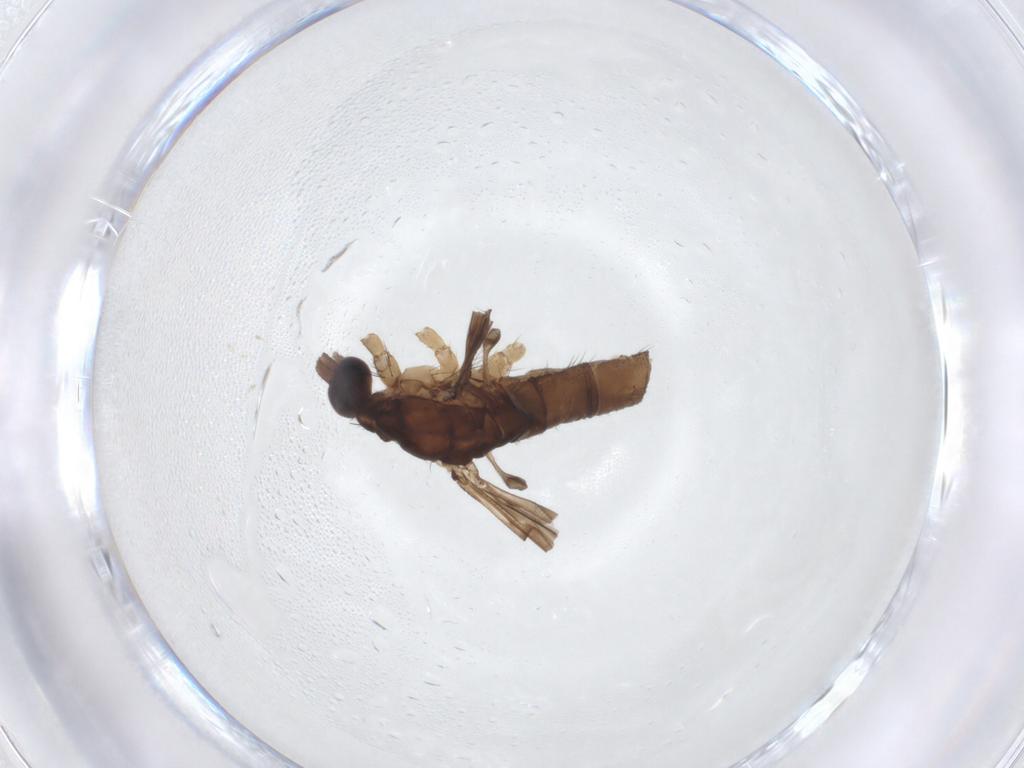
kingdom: Animalia
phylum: Arthropoda
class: Insecta
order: Diptera
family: Limoniidae
